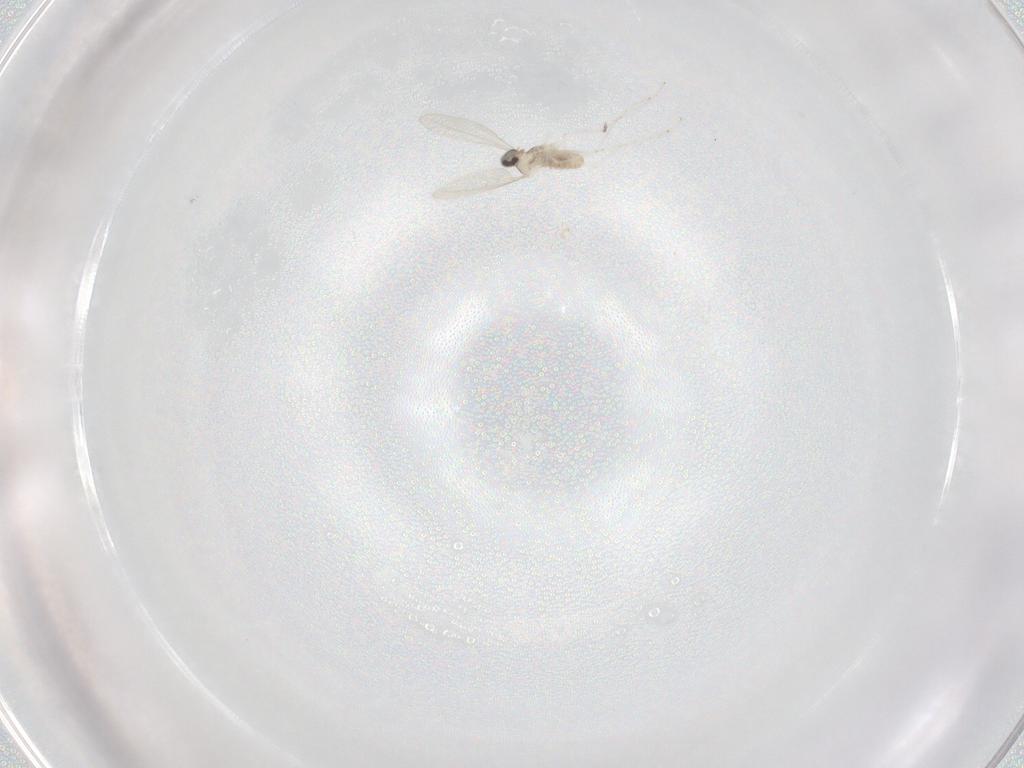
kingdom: Animalia
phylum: Arthropoda
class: Insecta
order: Diptera
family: Cecidomyiidae
